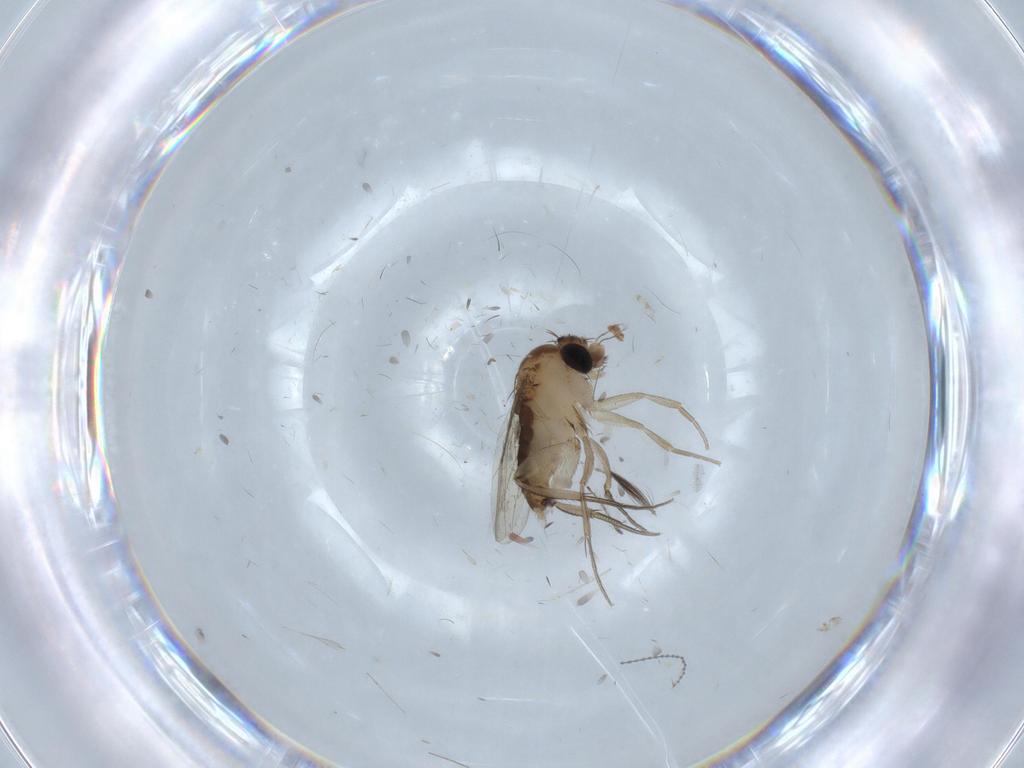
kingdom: Animalia
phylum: Arthropoda
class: Insecta
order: Diptera
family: Ceratopogonidae
